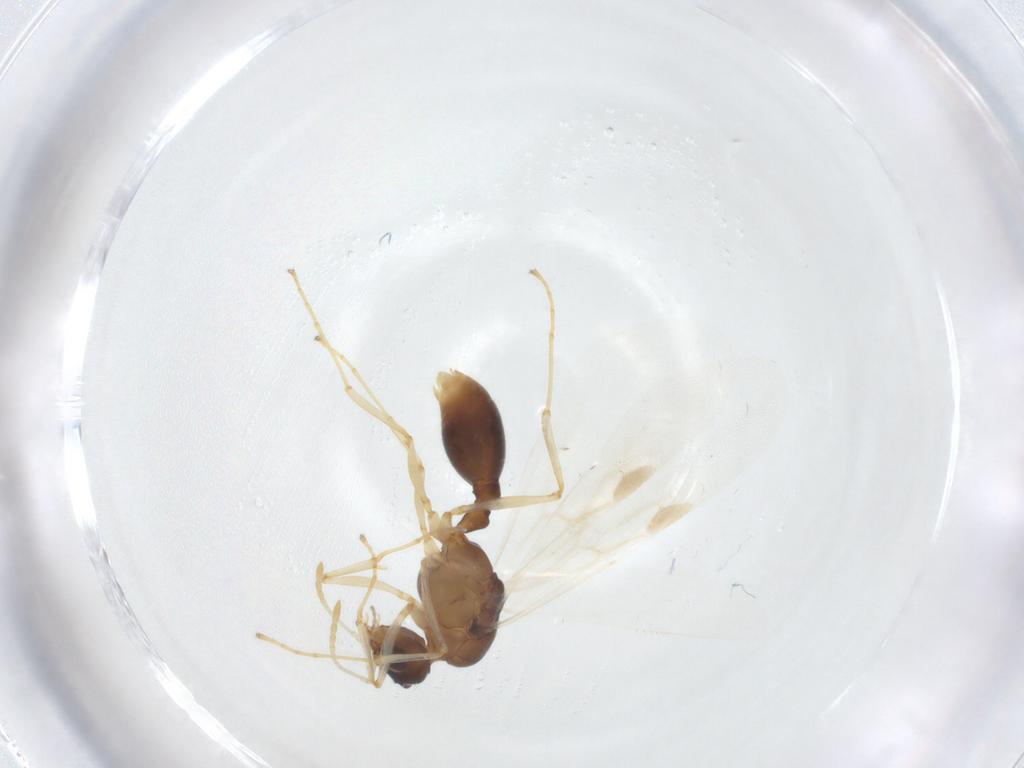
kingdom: Animalia
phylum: Arthropoda
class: Insecta
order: Hymenoptera
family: Formicidae
